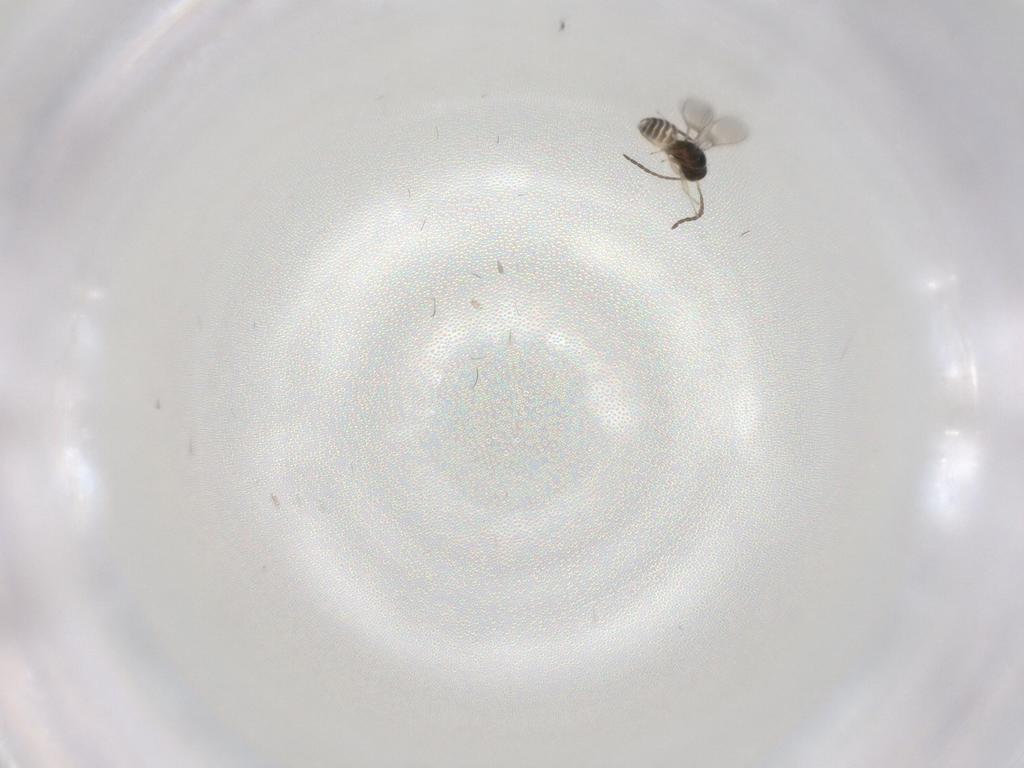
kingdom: Animalia
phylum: Arthropoda
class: Insecta
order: Hymenoptera
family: Mymaridae
